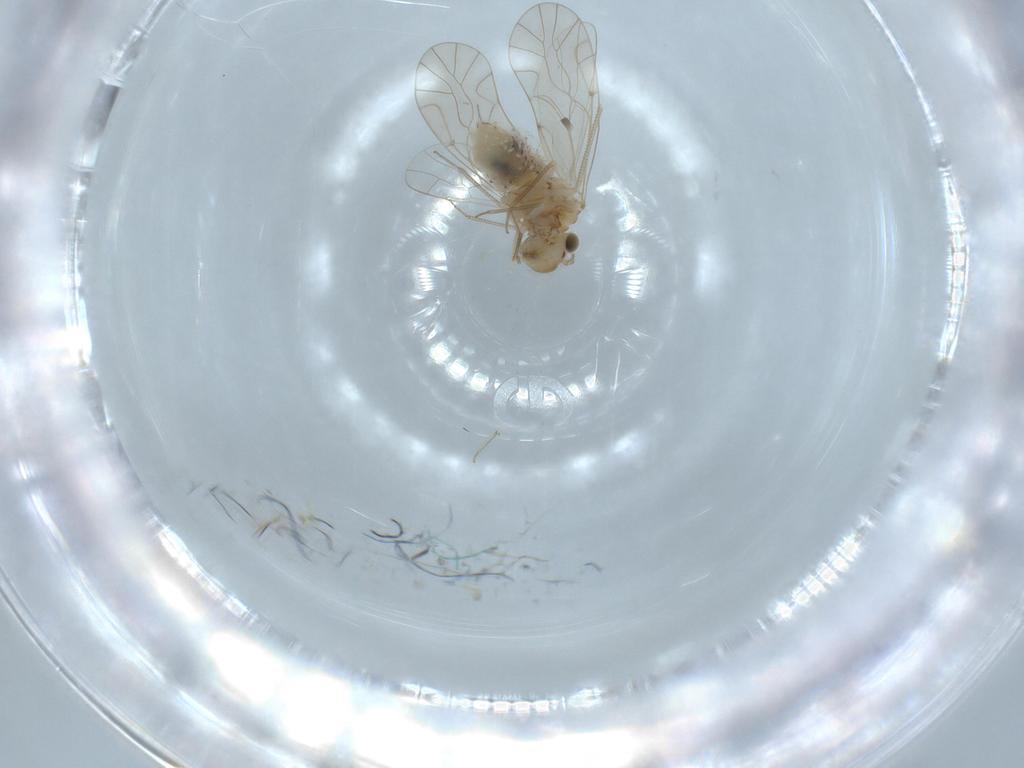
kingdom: Animalia
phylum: Arthropoda
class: Insecta
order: Psocodea
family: Lachesillidae
